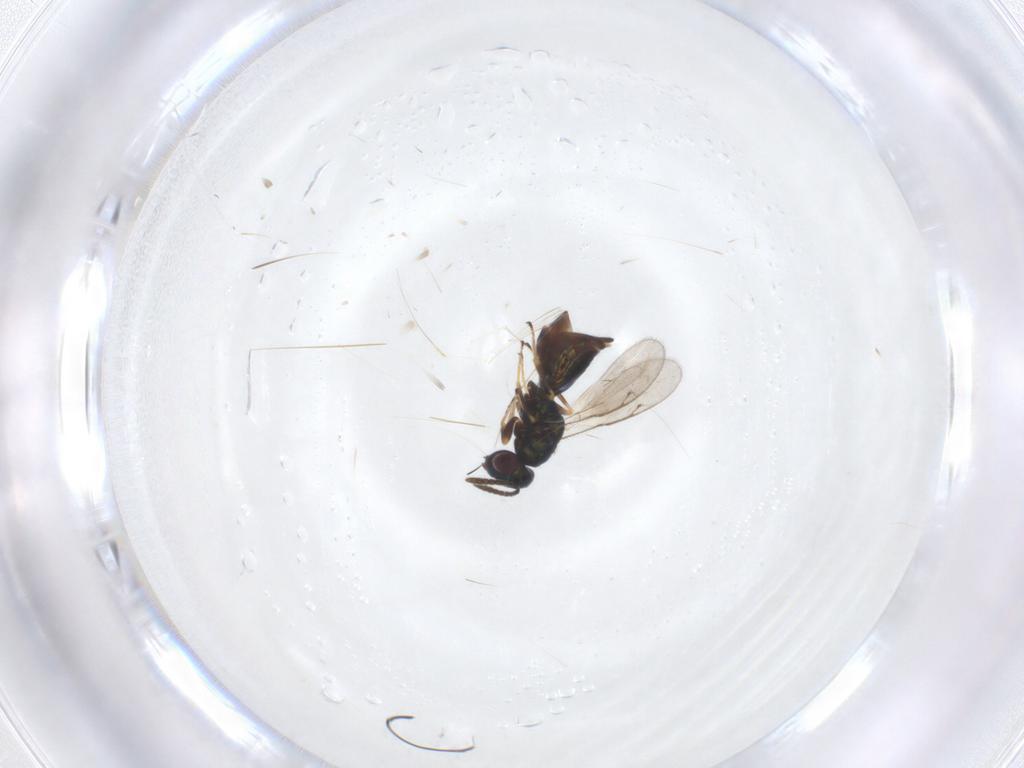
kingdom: Animalia
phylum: Arthropoda
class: Insecta
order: Hymenoptera
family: Pteromalidae
